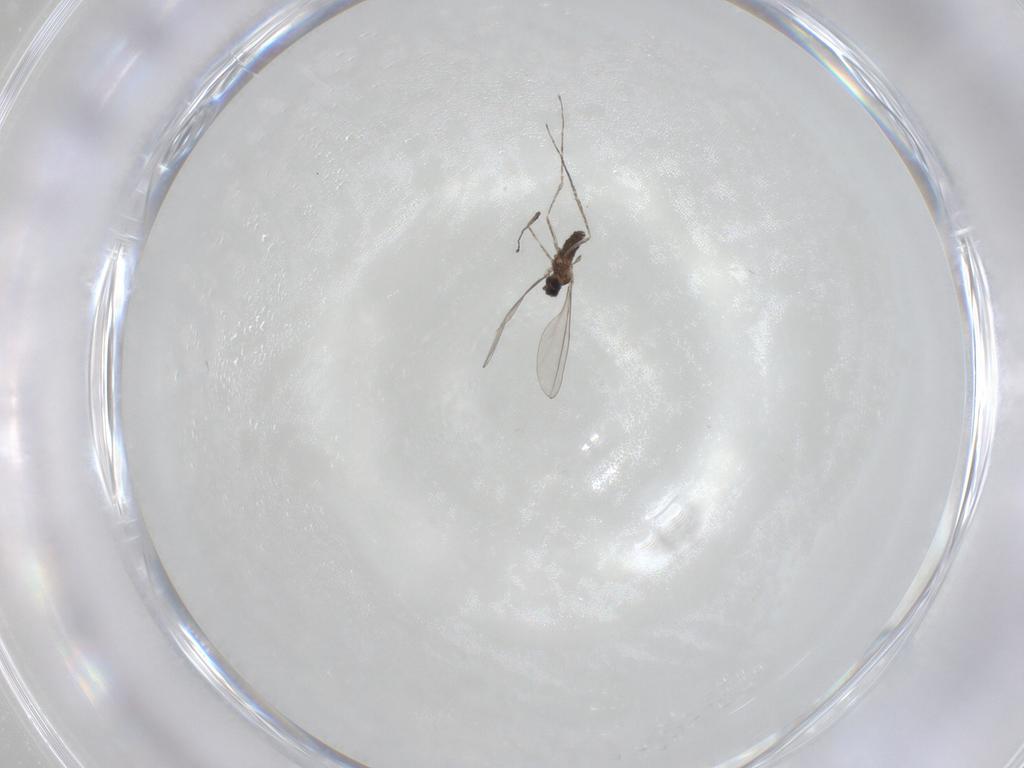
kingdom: Animalia
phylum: Arthropoda
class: Insecta
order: Diptera
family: Cecidomyiidae
